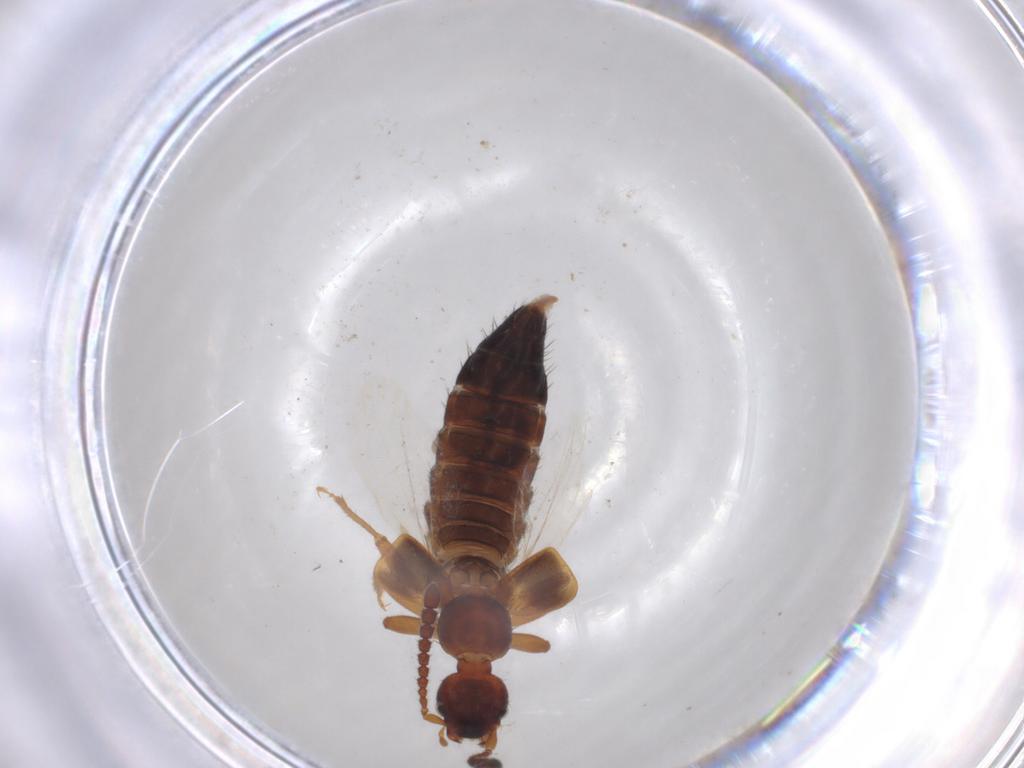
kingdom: Animalia
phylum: Arthropoda
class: Insecta
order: Coleoptera
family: Staphylinidae
